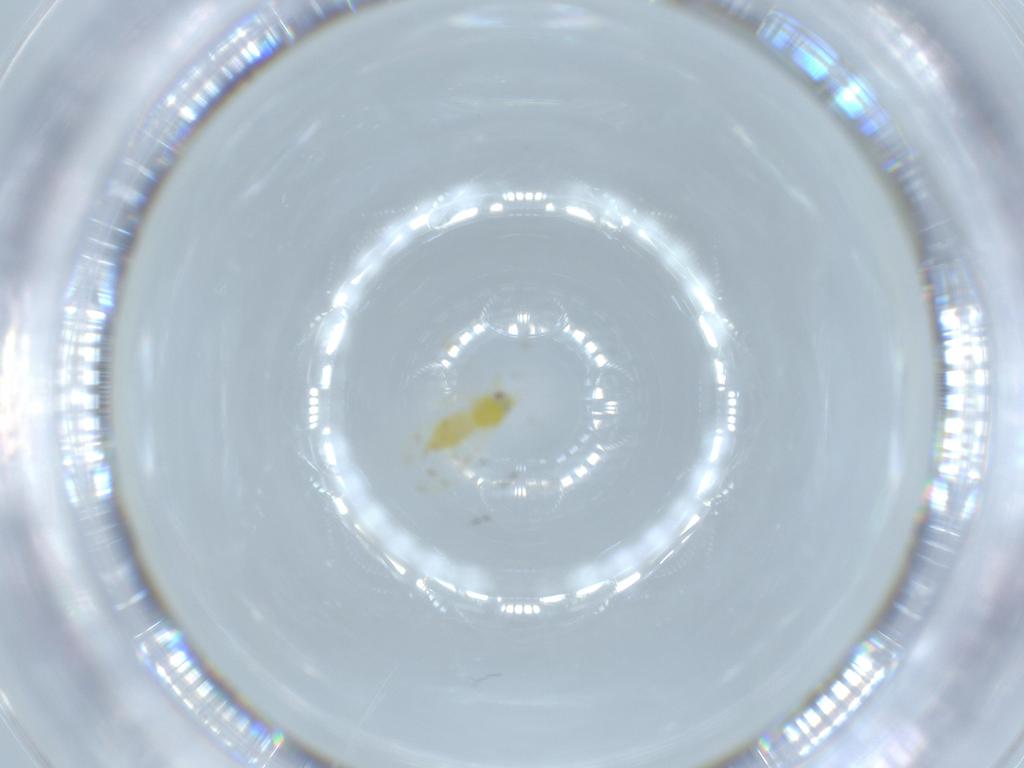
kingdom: Animalia
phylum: Arthropoda
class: Insecta
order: Hemiptera
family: Aleyrodidae
